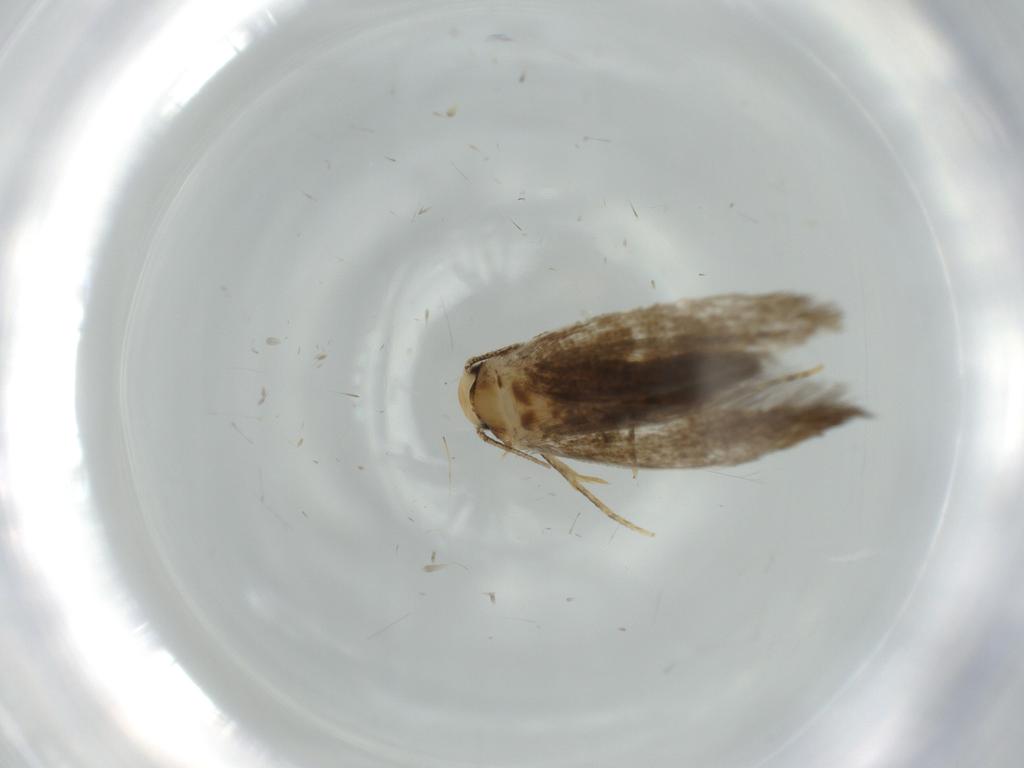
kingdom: Animalia
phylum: Arthropoda
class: Insecta
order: Lepidoptera
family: Tineidae
